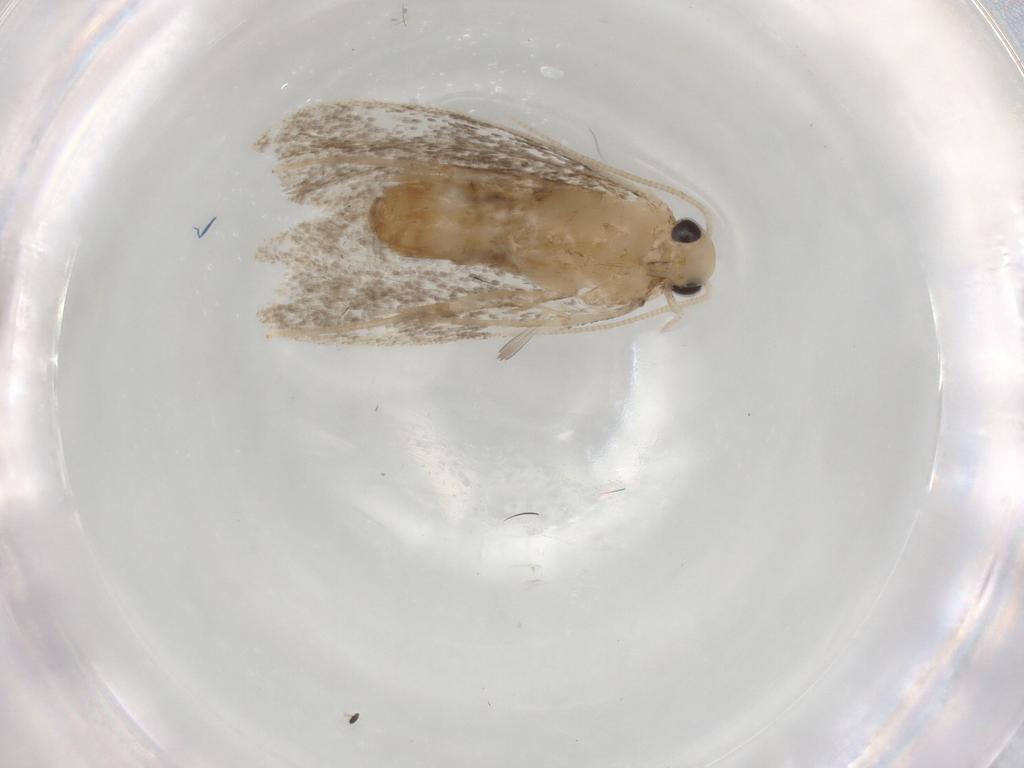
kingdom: Animalia
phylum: Arthropoda
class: Insecta
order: Lepidoptera
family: Dryadaulidae
